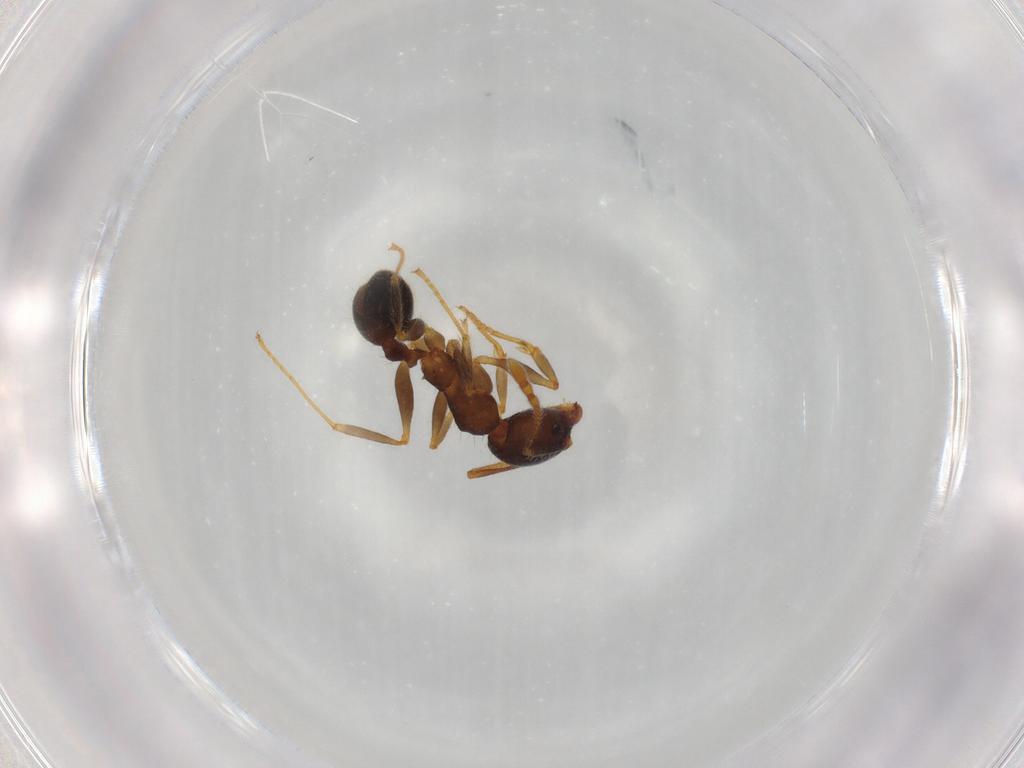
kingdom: Animalia
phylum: Arthropoda
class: Insecta
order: Hymenoptera
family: Formicidae
